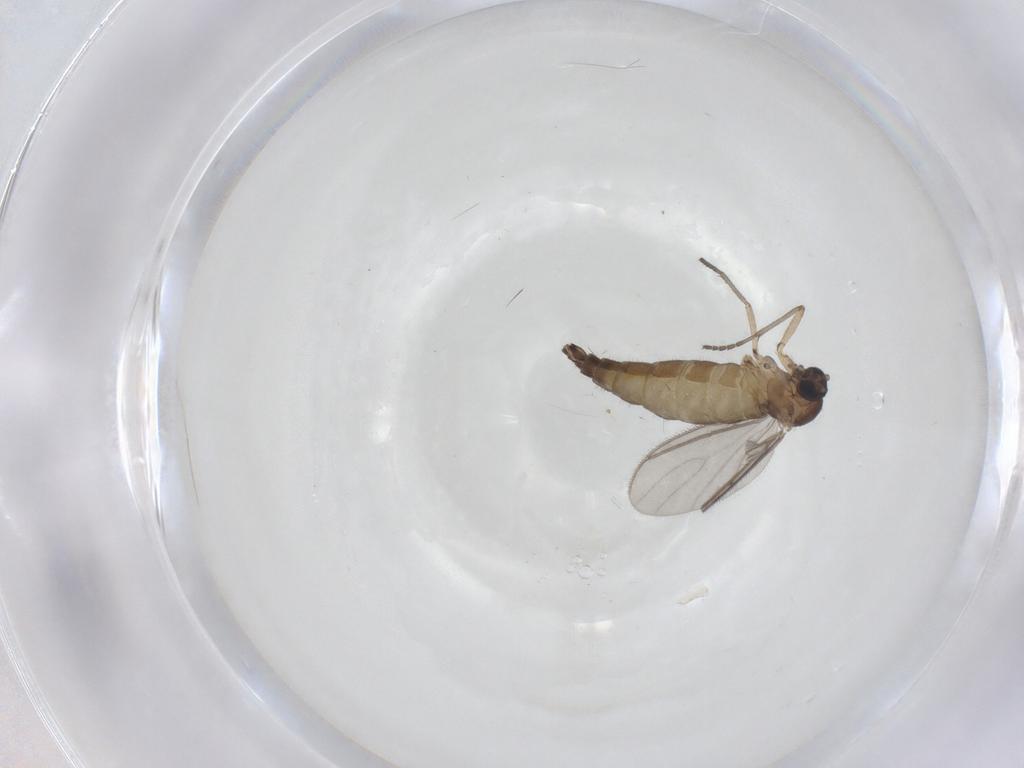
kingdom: Animalia
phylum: Arthropoda
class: Insecta
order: Diptera
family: Sciaridae
